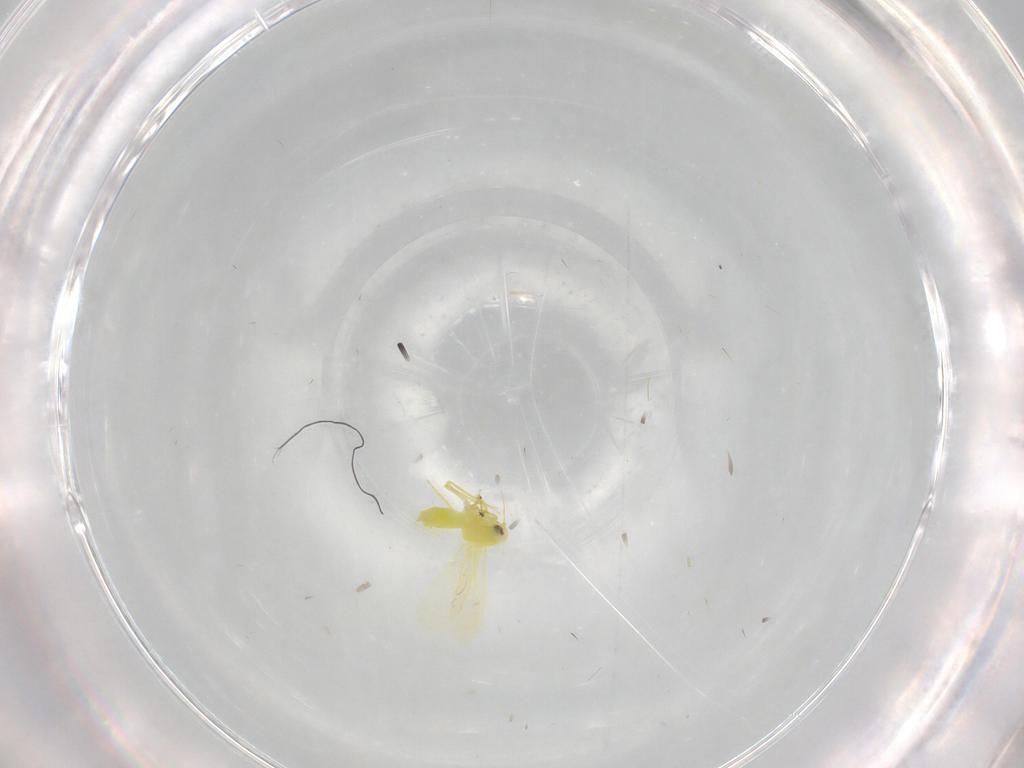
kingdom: Animalia
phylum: Arthropoda
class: Insecta
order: Hemiptera
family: Aleyrodidae
